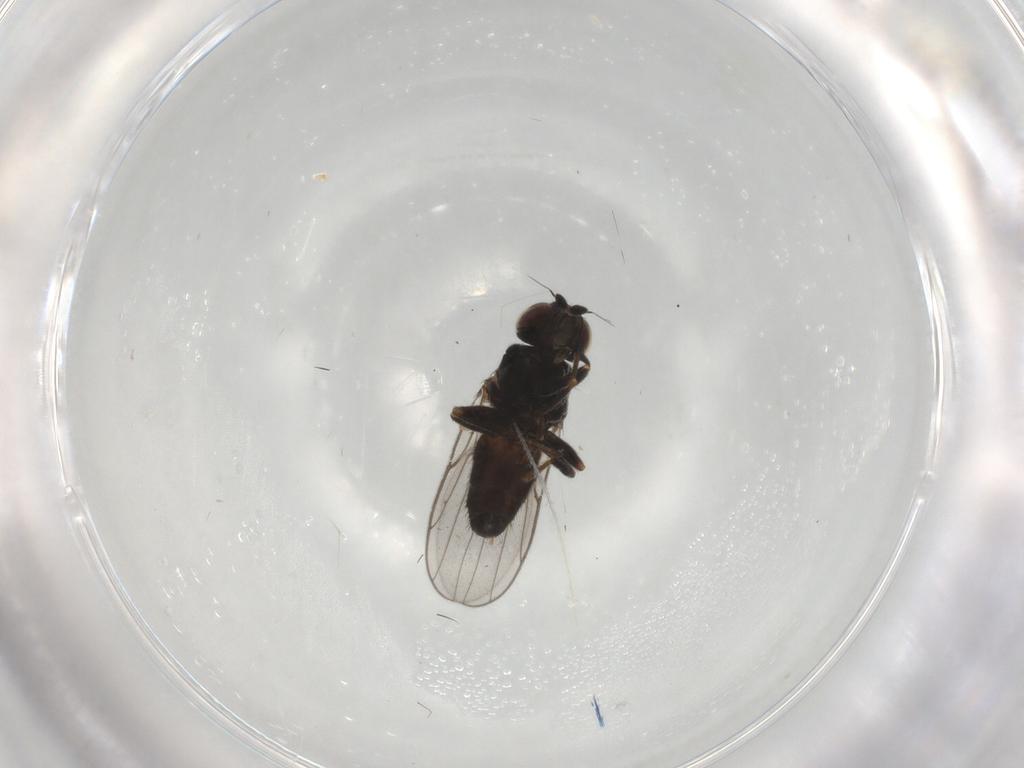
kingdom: Animalia
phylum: Arthropoda
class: Insecta
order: Diptera
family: Chloropidae
